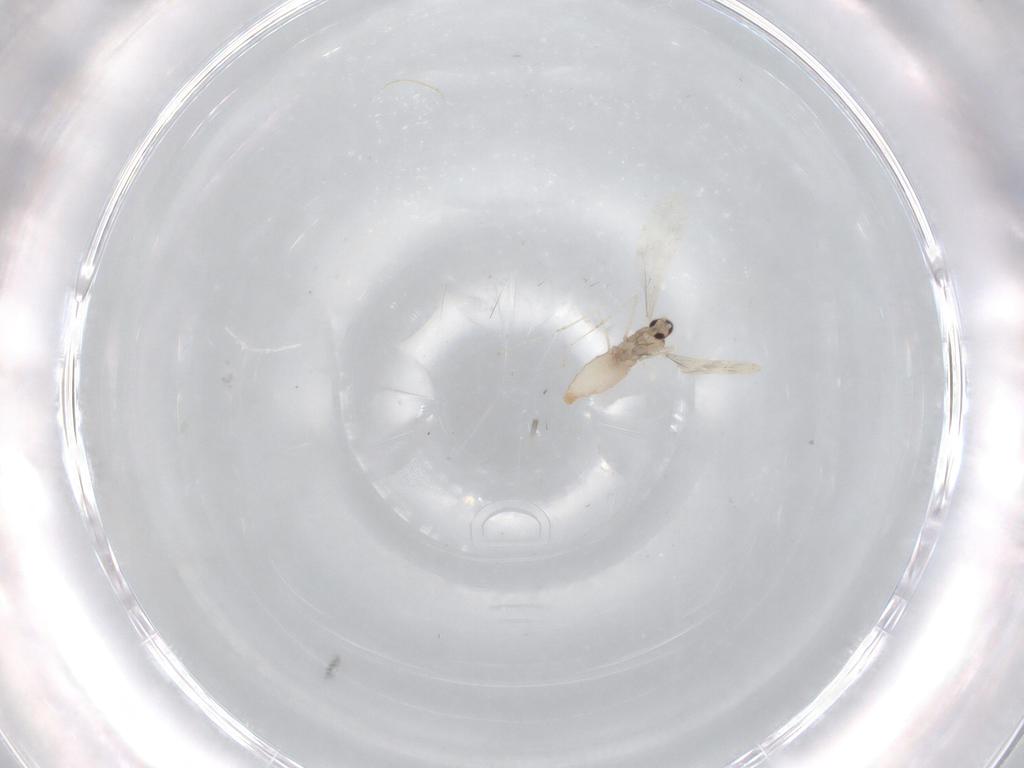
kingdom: Animalia
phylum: Arthropoda
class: Insecta
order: Diptera
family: Cecidomyiidae
